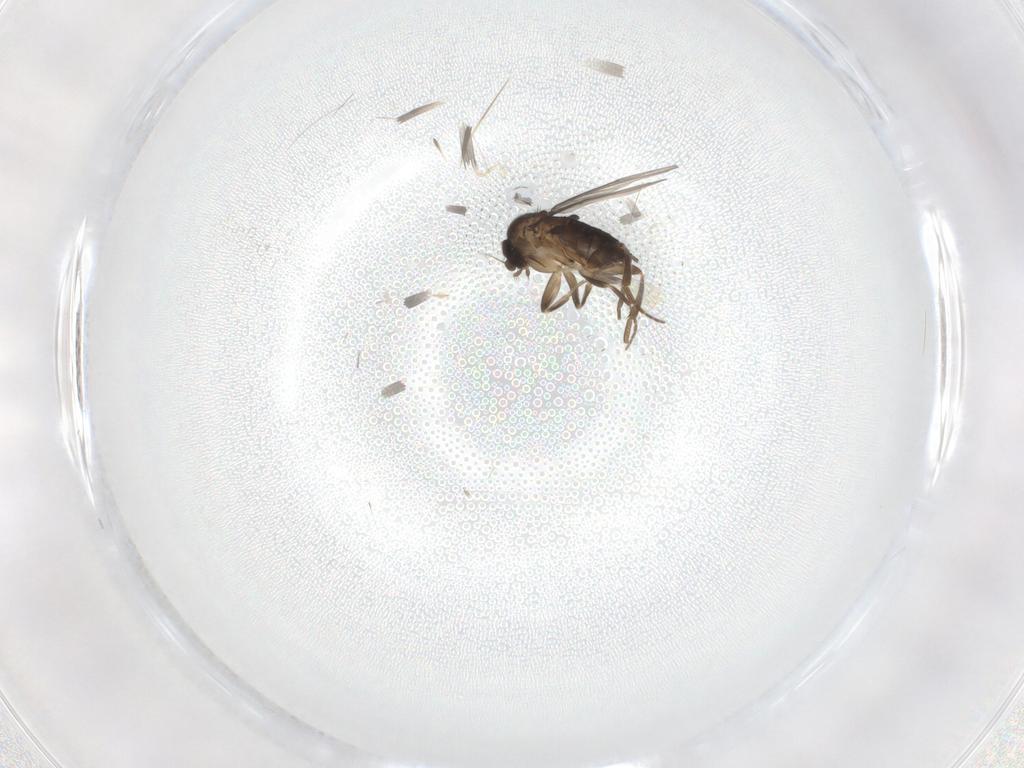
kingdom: Animalia
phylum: Arthropoda
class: Insecta
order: Diptera
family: Phoridae
